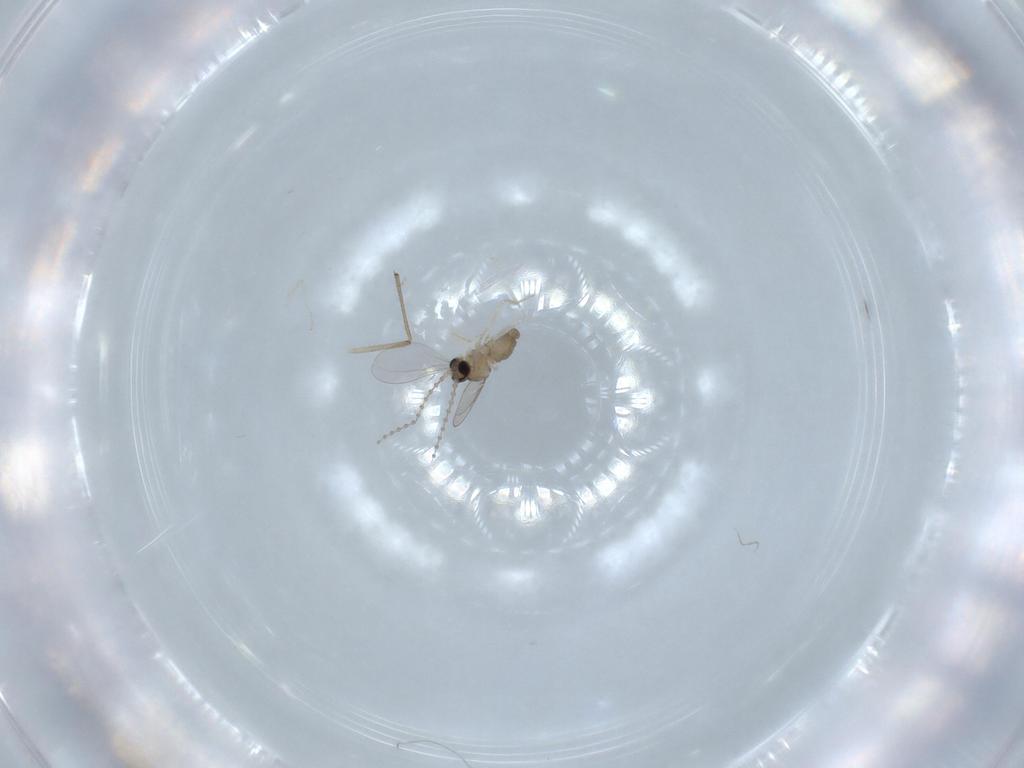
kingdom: Animalia
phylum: Arthropoda
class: Insecta
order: Diptera
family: Cecidomyiidae
